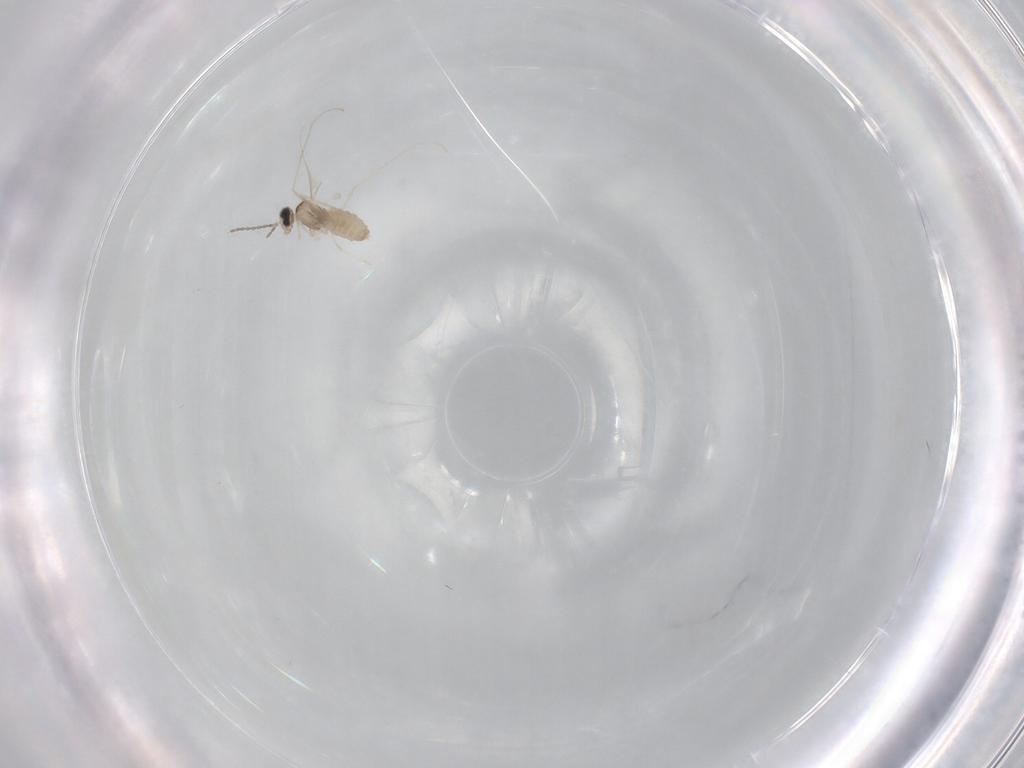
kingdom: Animalia
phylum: Arthropoda
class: Insecta
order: Diptera
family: Cecidomyiidae
